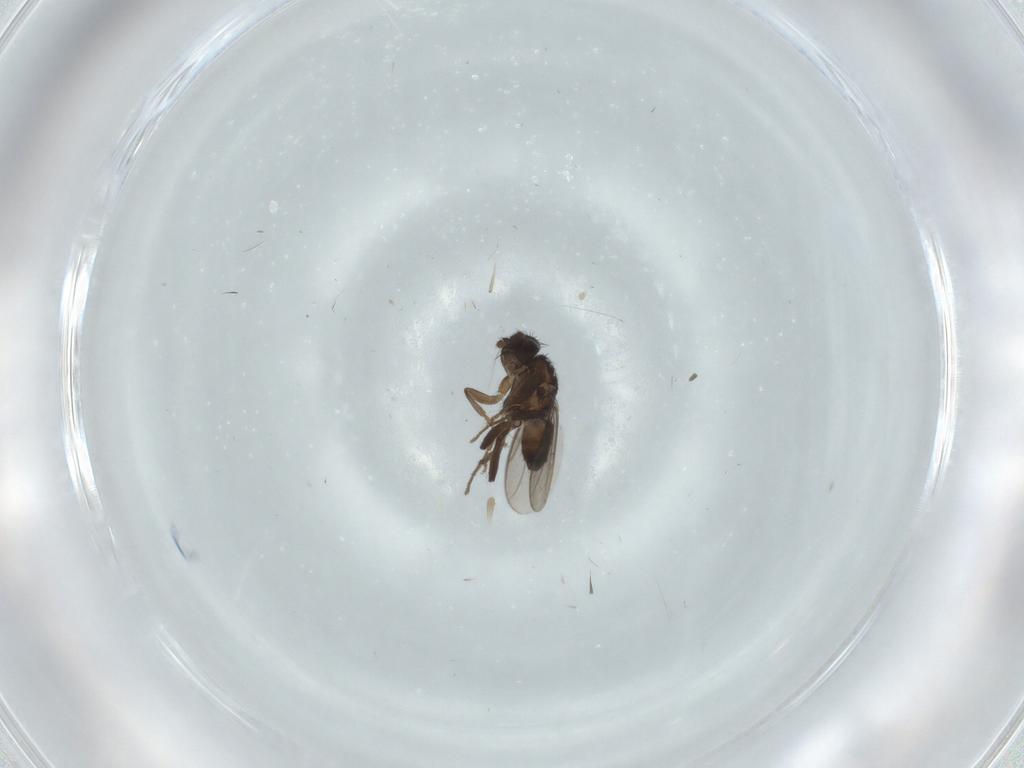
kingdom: Animalia
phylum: Arthropoda
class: Insecta
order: Diptera
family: Sphaeroceridae
